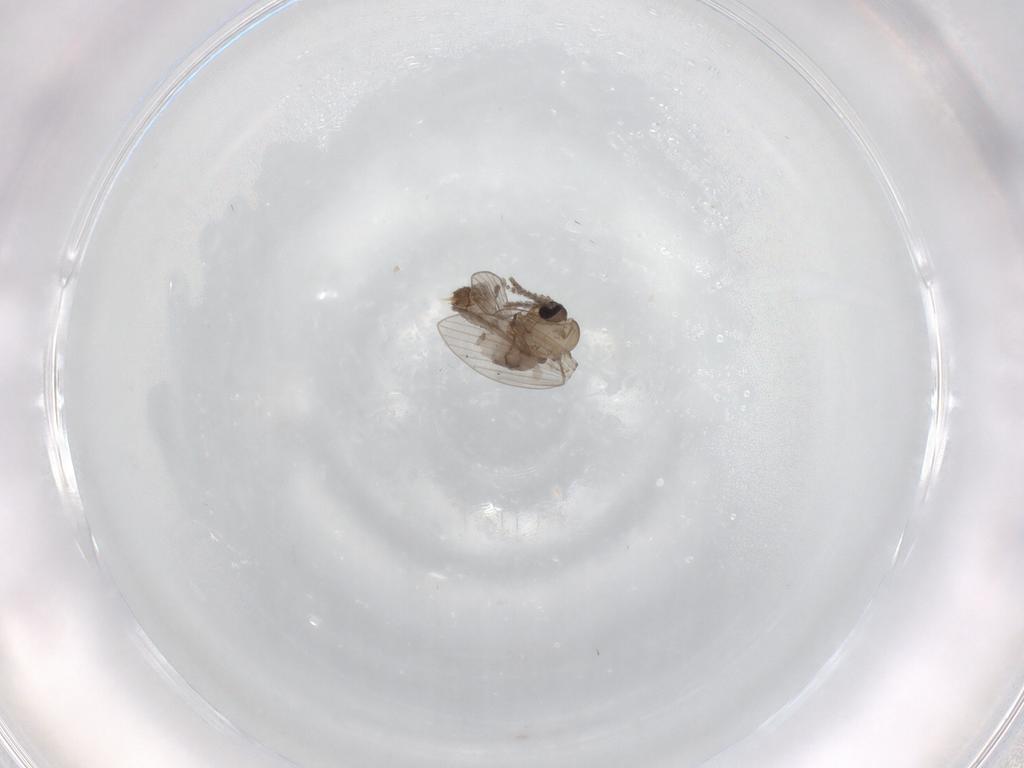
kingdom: Animalia
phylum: Arthropoda
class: Insecta
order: Diptera
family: Psychodidae
